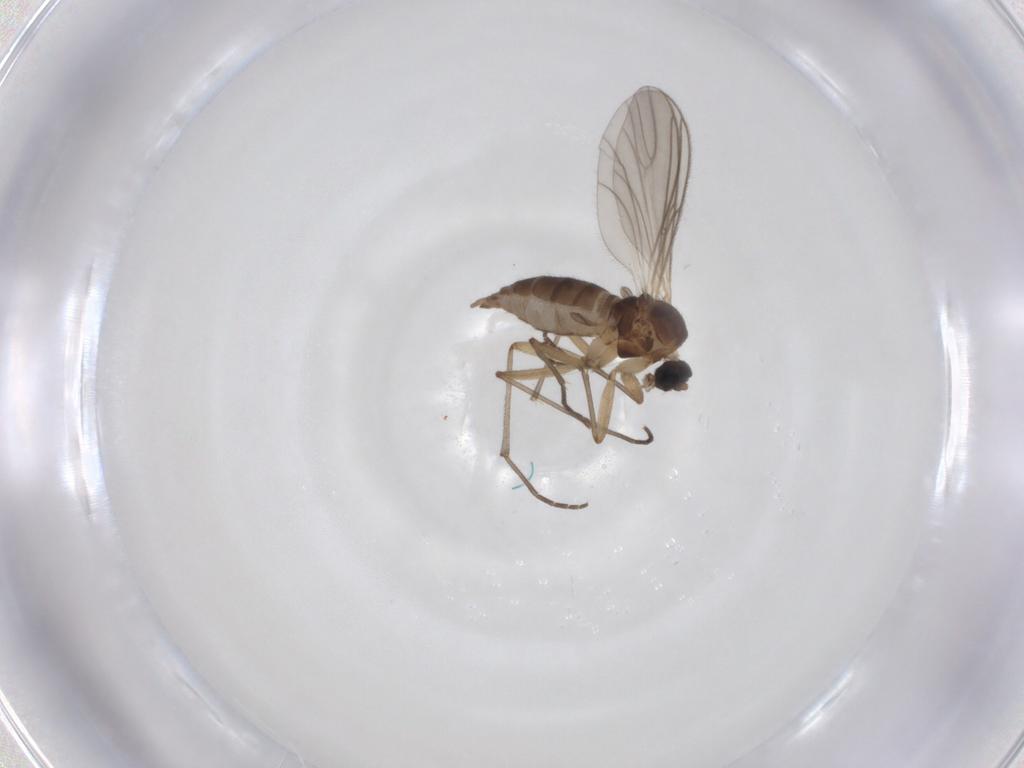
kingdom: Animalia
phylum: Arthropoda
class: Insecta
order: Diptera
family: Sciaridae
